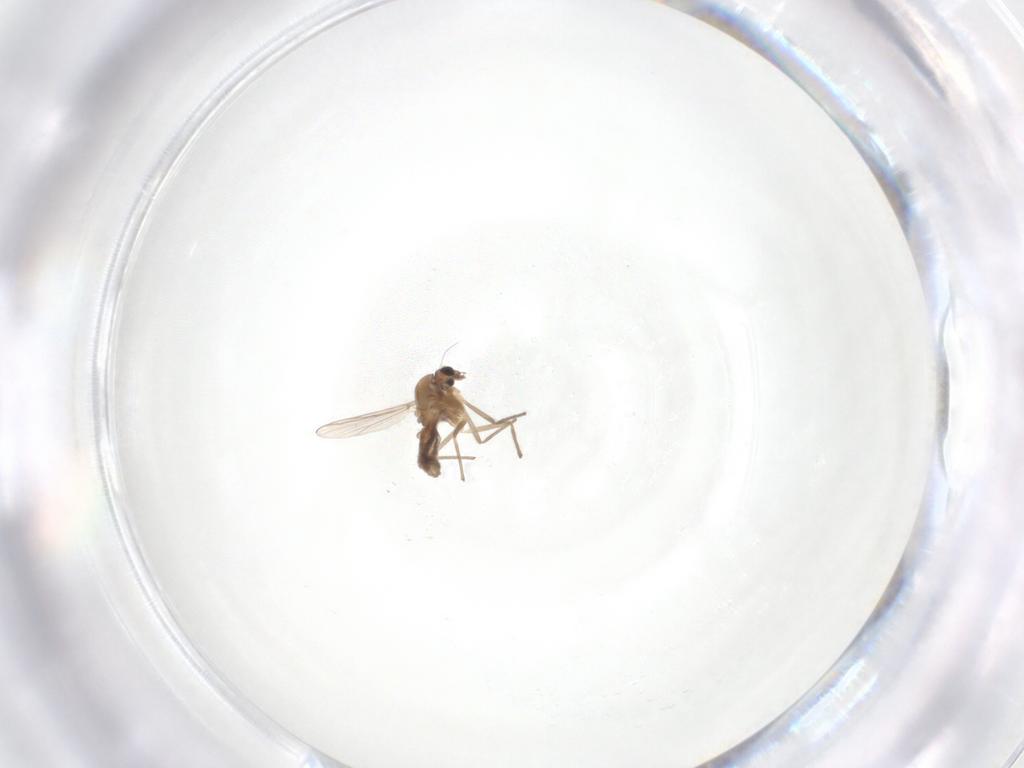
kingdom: Animalia
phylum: Arthropoda
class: Insecta
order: Diptera
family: Chironomidae
